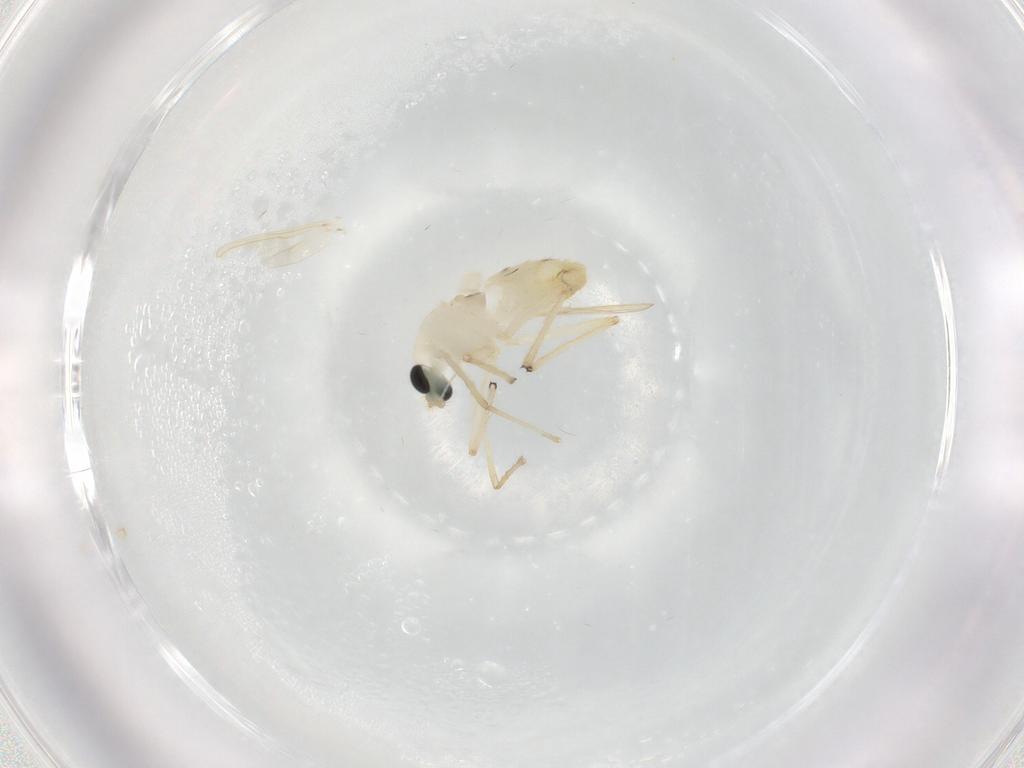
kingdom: Animalia
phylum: Arthropoda
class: Insecta
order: Diptera
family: Chironomidae
